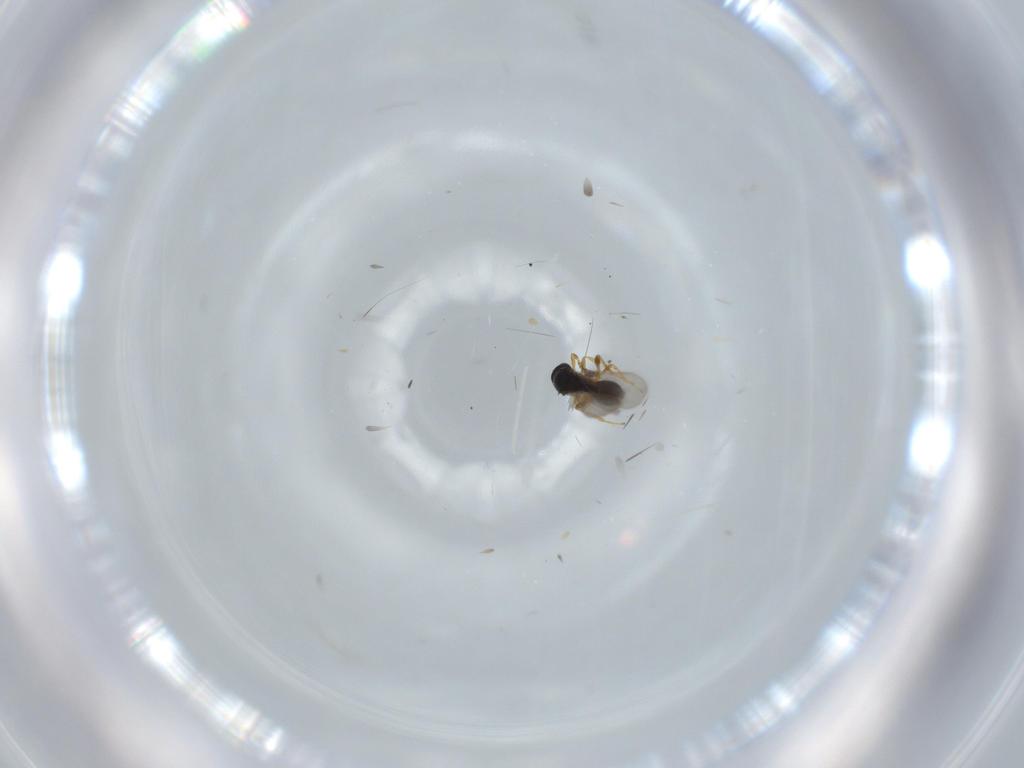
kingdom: Animalia
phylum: Arthropoda
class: Insecta
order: Hymenoptera
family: Platygastridae
